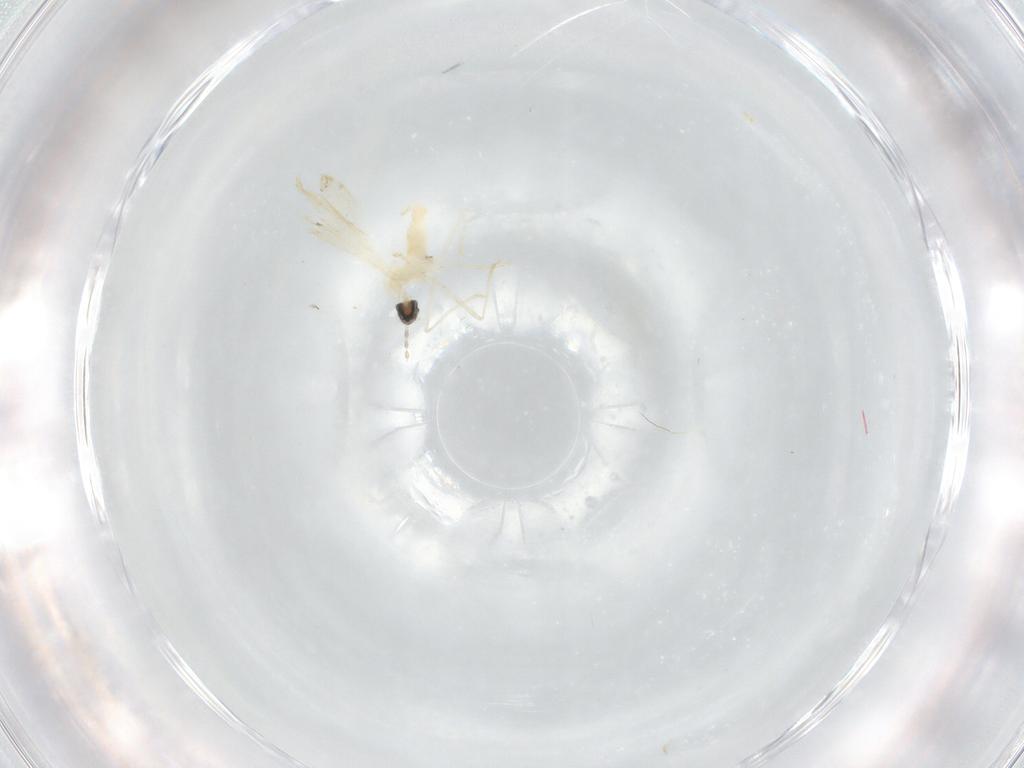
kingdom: Animalia
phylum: Arthropoda
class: Insecta
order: Diptera
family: Cecidomyiidae
